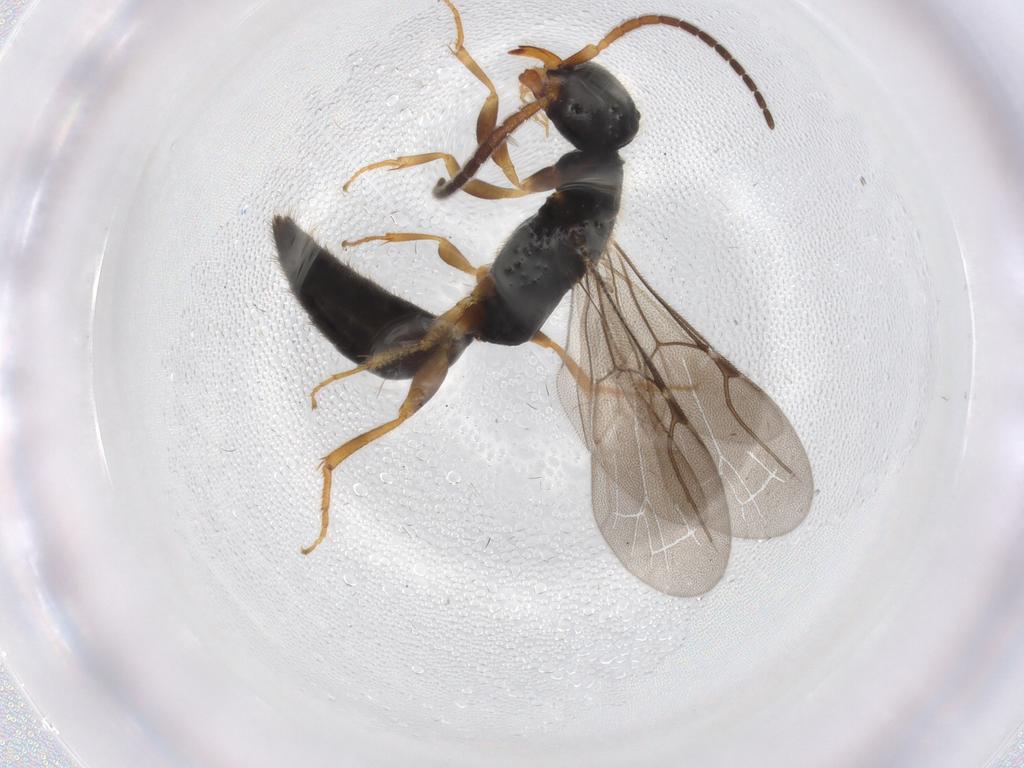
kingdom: Animalia
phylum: Arthropoda
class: Insecta
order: Hymenoptera
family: Bethylidae
